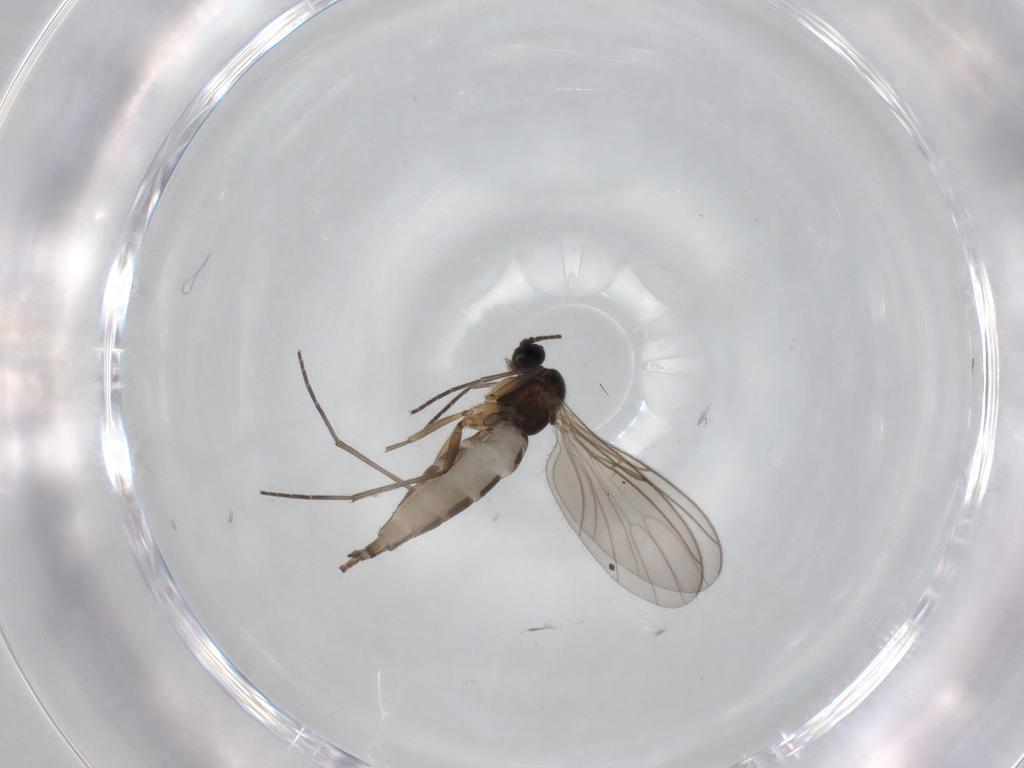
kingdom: Animalia
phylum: Arthropoda
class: Insecta
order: Diptera
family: Sciaridae
